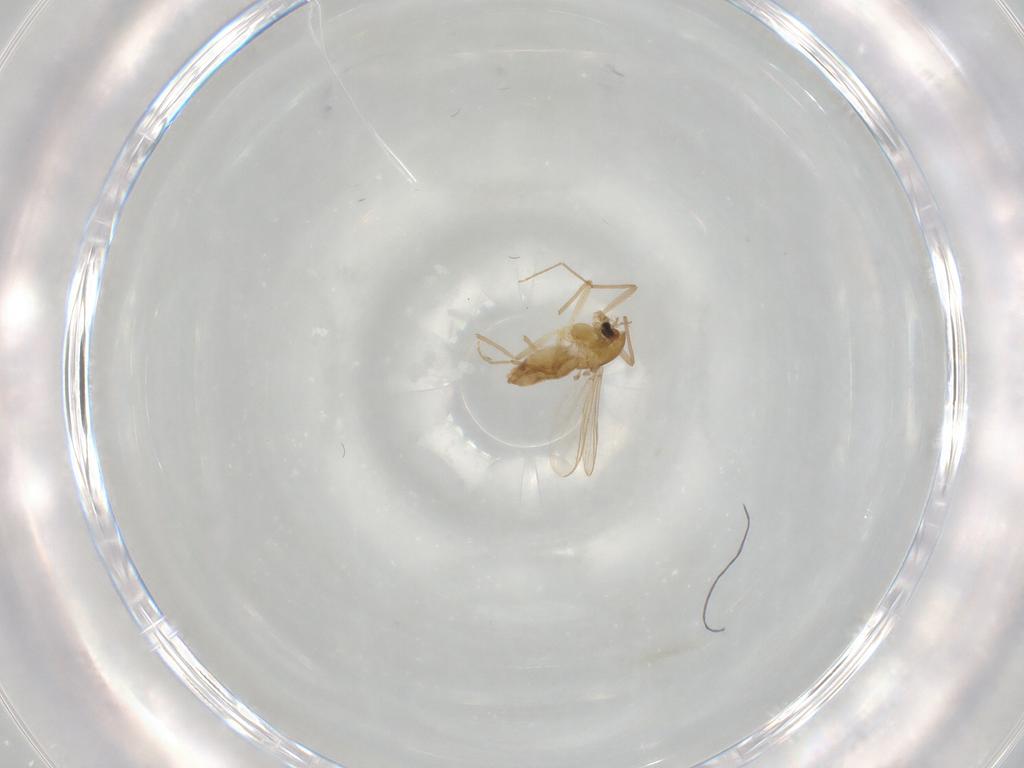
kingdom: Animalia
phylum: Arthropoda
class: Insecta
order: Diptera
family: Chironomidae
